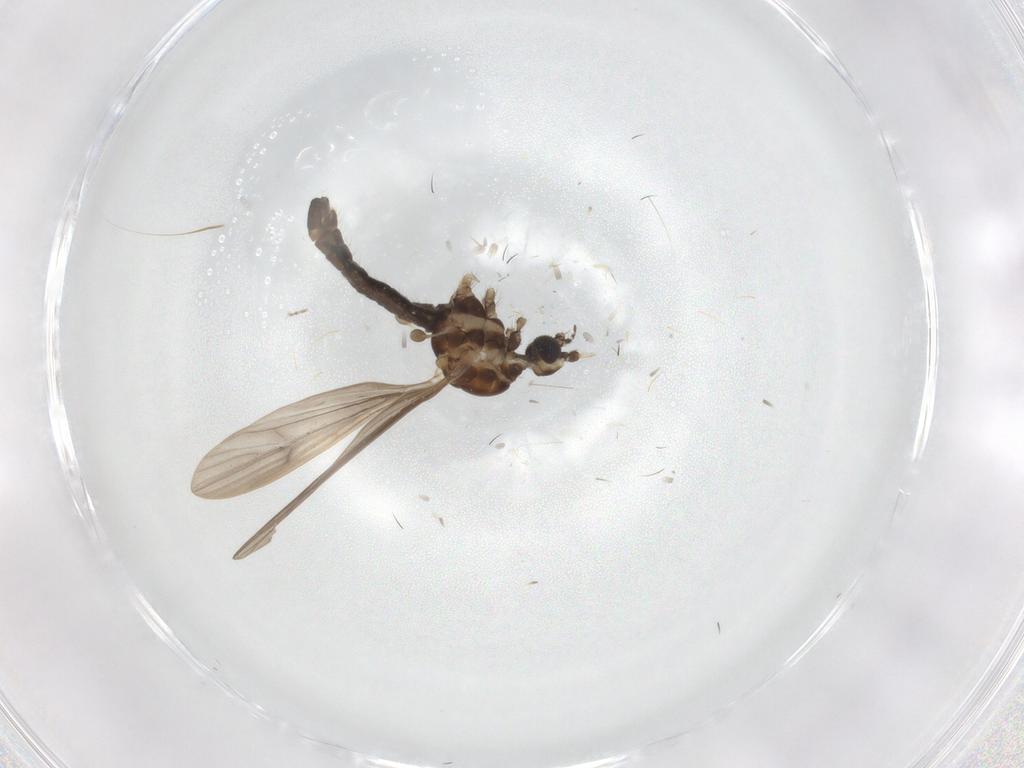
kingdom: Animalia
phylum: Arthropoda
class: Insecta
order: Diptera
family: Limoniidae
